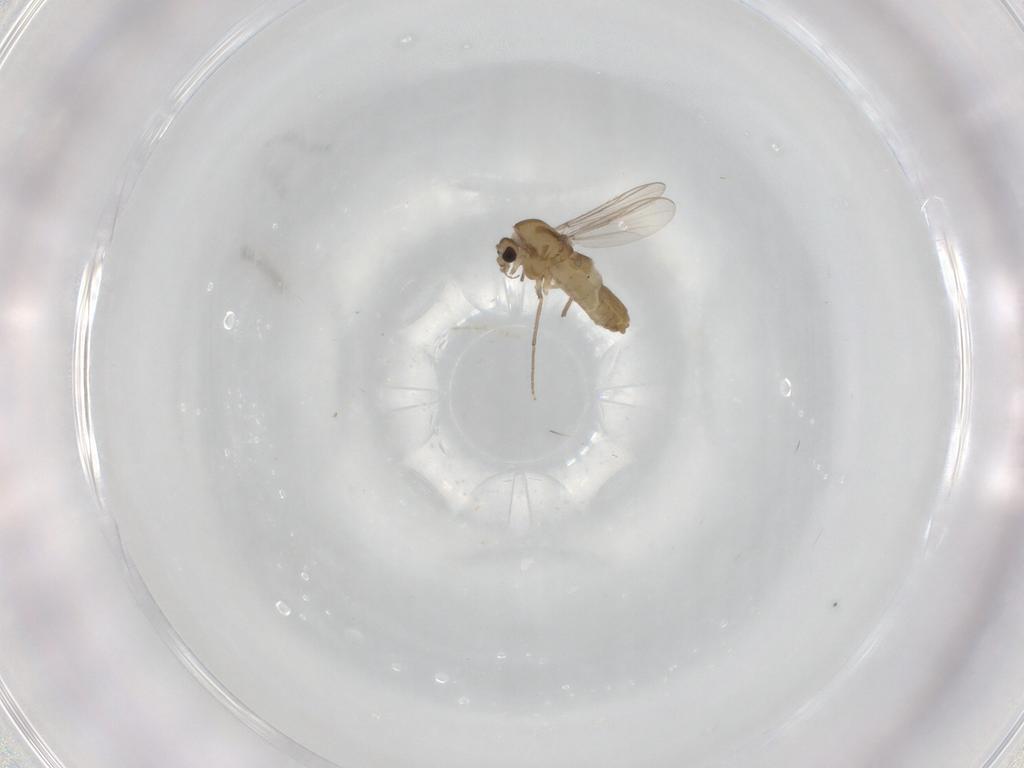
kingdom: Animalia
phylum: Arthropoda
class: Insecta
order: Diptera
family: Chironomidae
